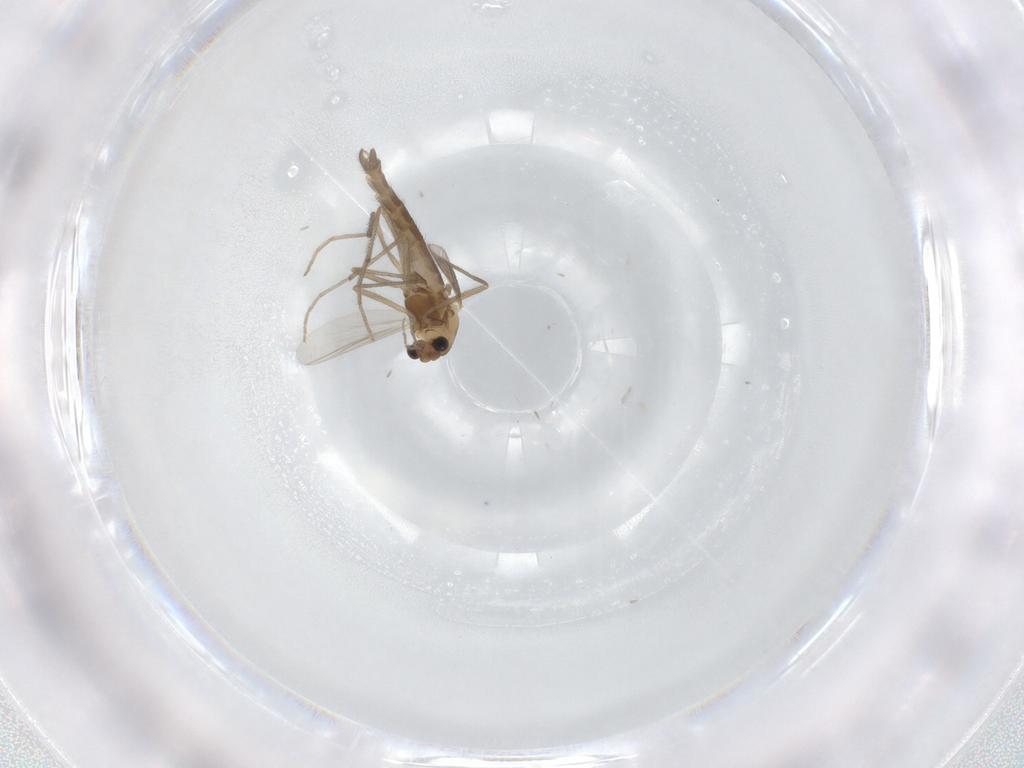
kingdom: Animalia
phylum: Arthropoda
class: Insecta
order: Diptera
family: Chironomidae
